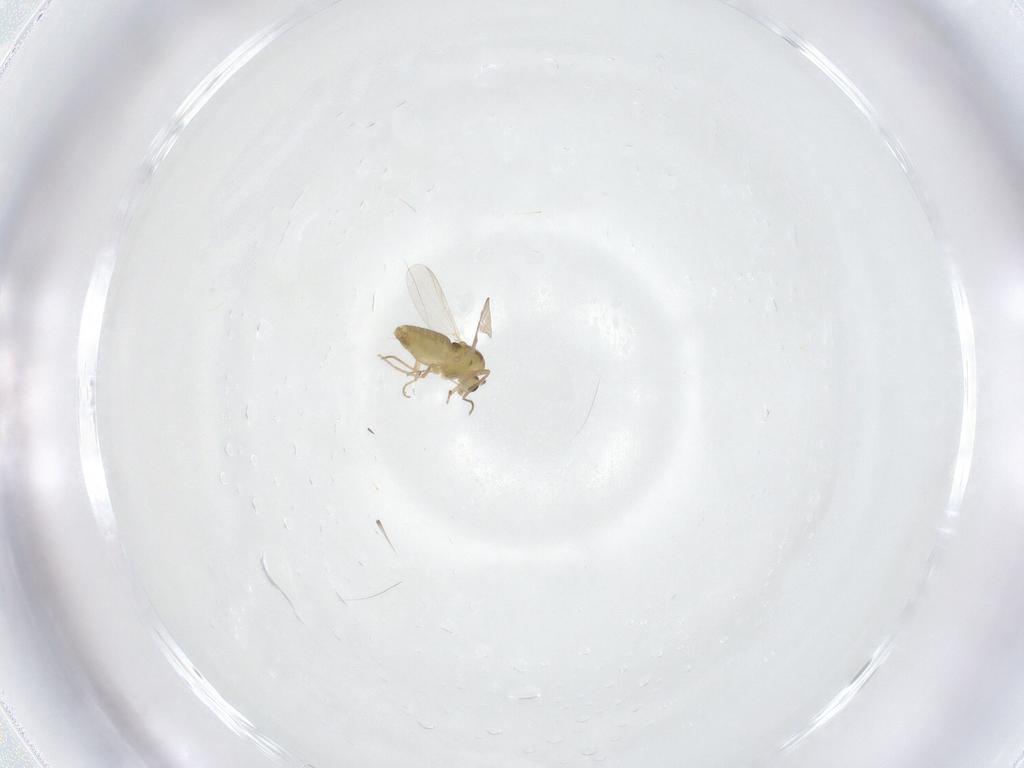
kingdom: Animalia
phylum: Arthropoda
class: Insecta
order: Diptera
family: Chironomidae
